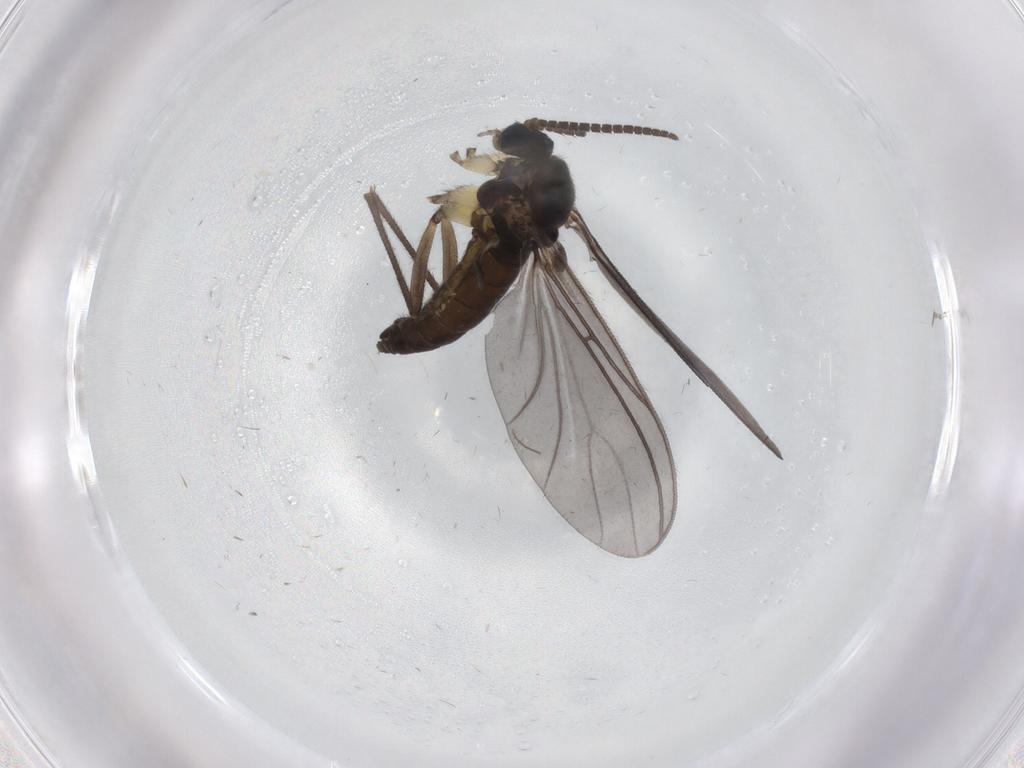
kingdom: Animalia
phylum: Arthropoda
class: Insecta
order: Diptera
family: Sciaridae
